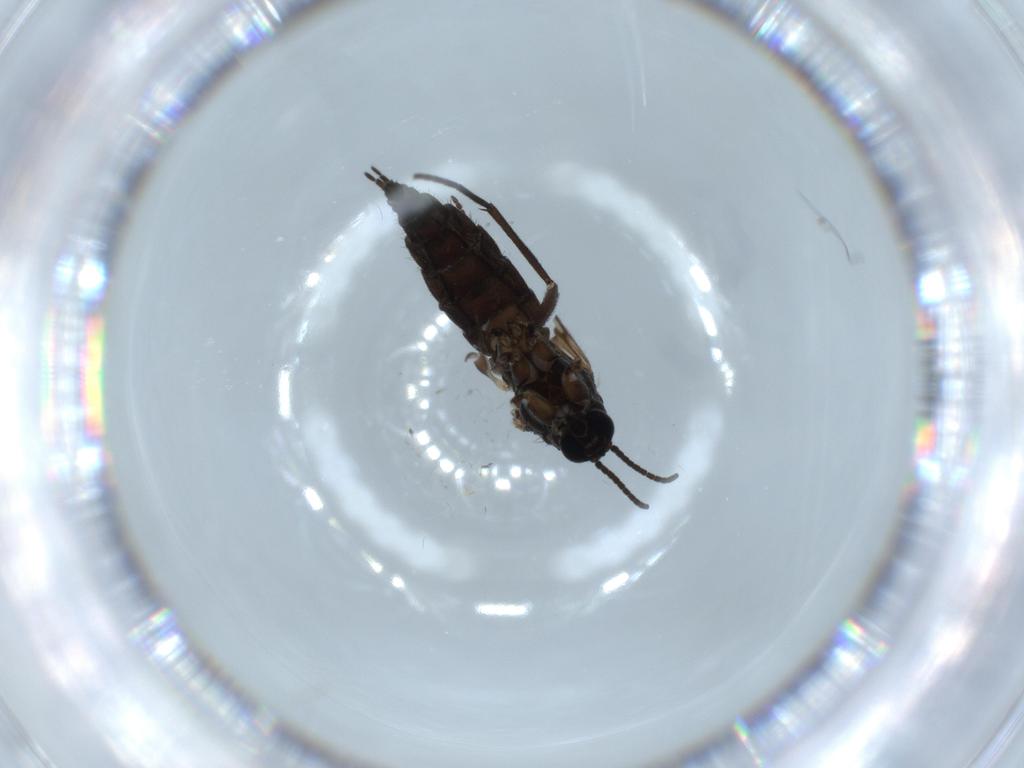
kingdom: Animalia
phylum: Arthropoda
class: Insecta
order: Diptera
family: Sciaridae
